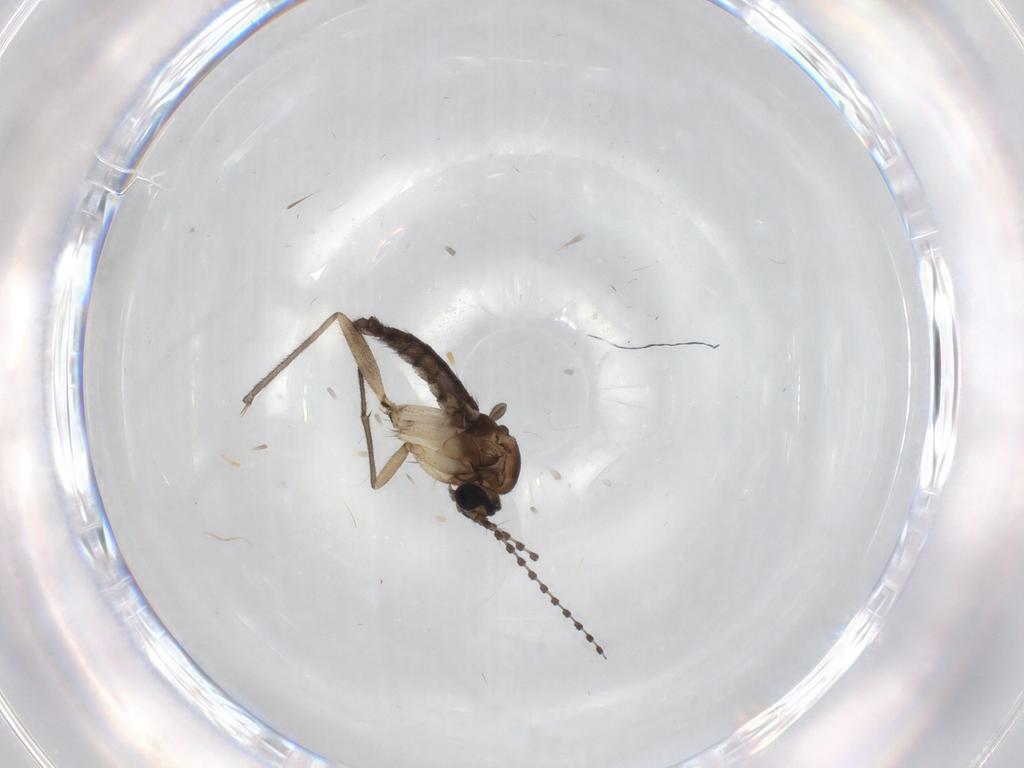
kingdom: Animalia
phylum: Arthropoda
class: Insecta
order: Diptera
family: Sciaridae
